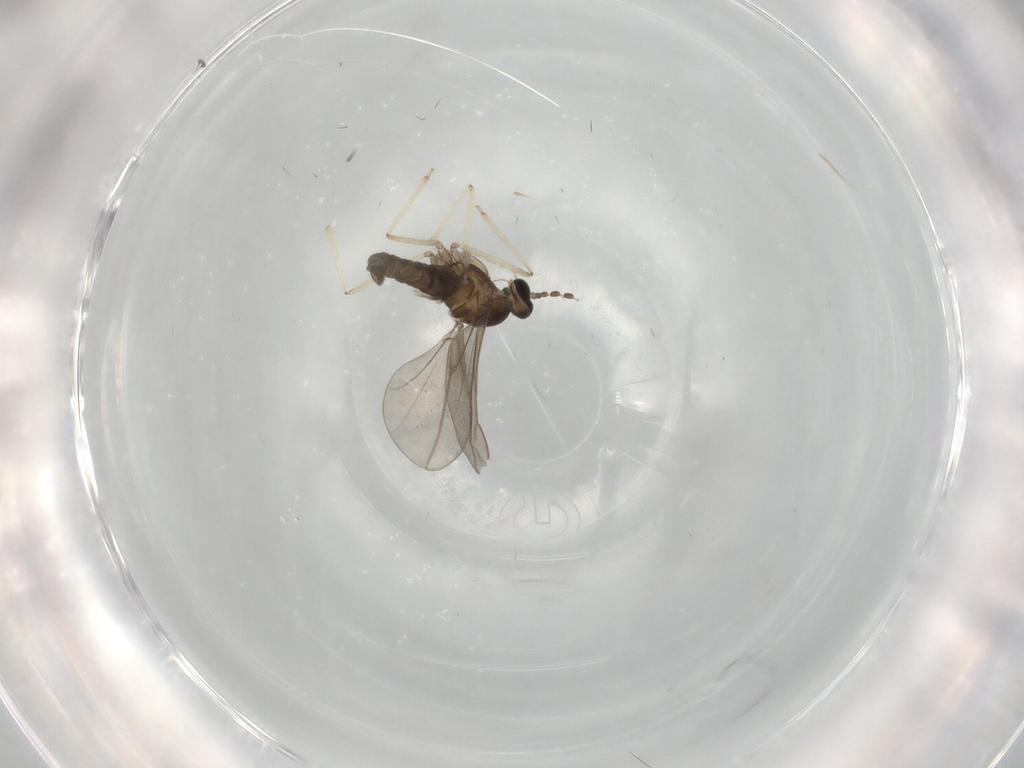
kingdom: Animalia
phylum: Arthropoda
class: Insecta
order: Diptera
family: Cecidomyiidae
